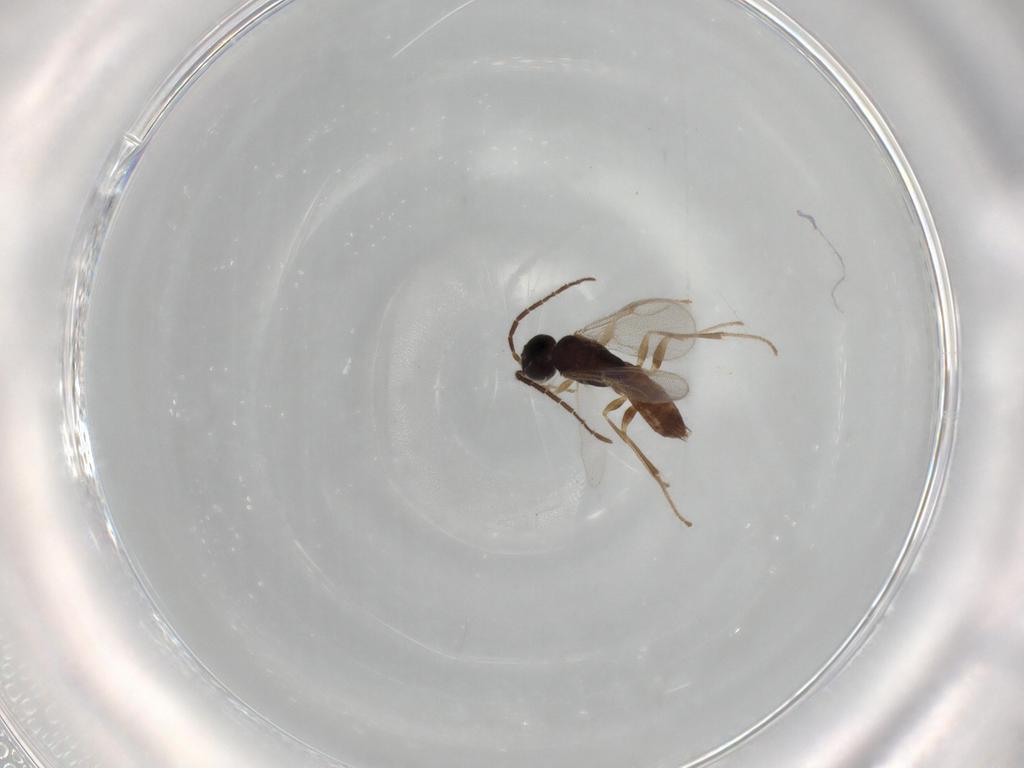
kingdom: Animalia
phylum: Arthropoda
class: Insecta
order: Hymenoptera
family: Dryinidae
